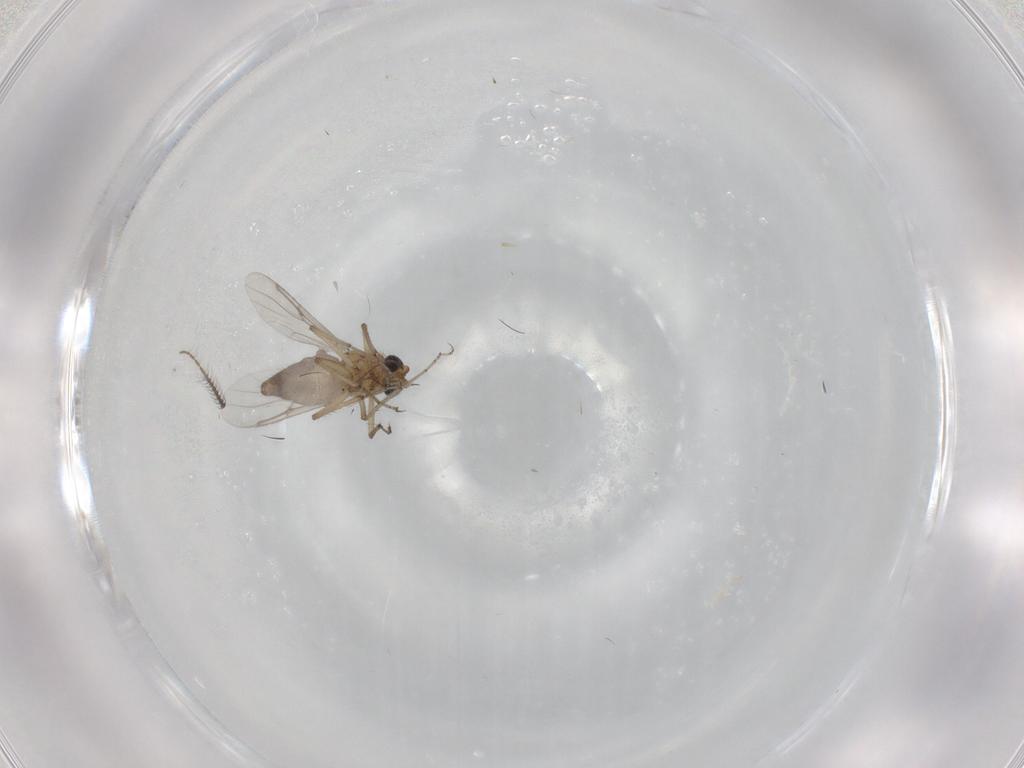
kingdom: Animalia
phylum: Arthropoda
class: Insecta
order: Diptera
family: Ceratopogonidae
